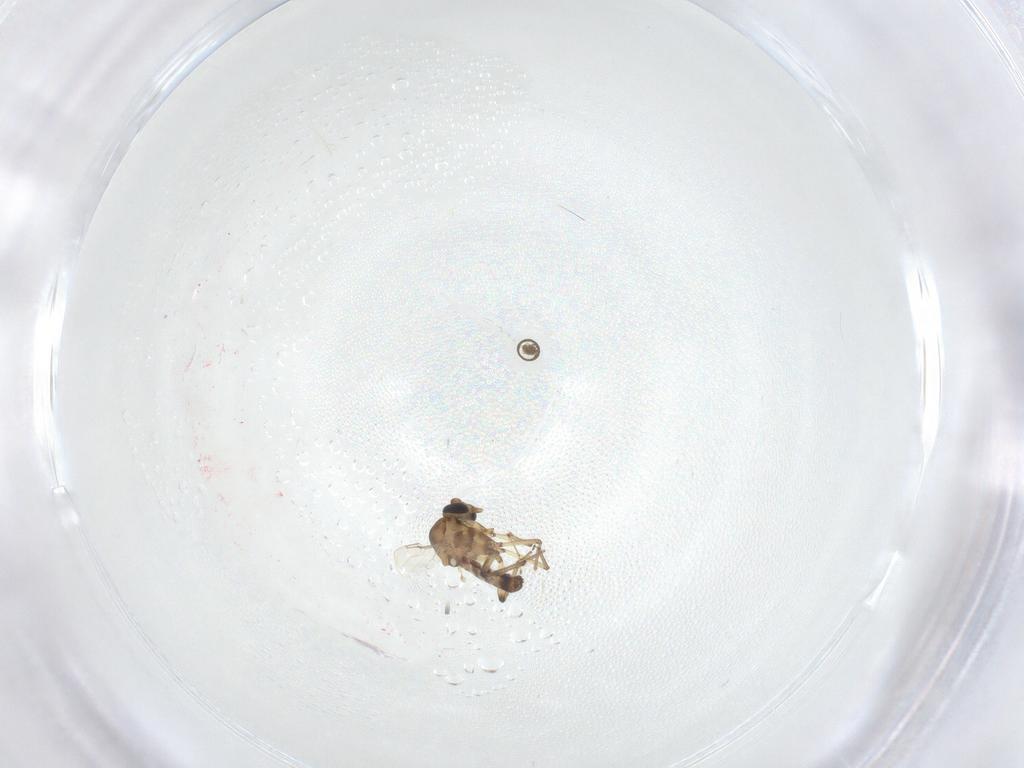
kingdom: Animalia
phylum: Arthropoda
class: Insecta
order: Diptera
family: Ceratopogonidae
